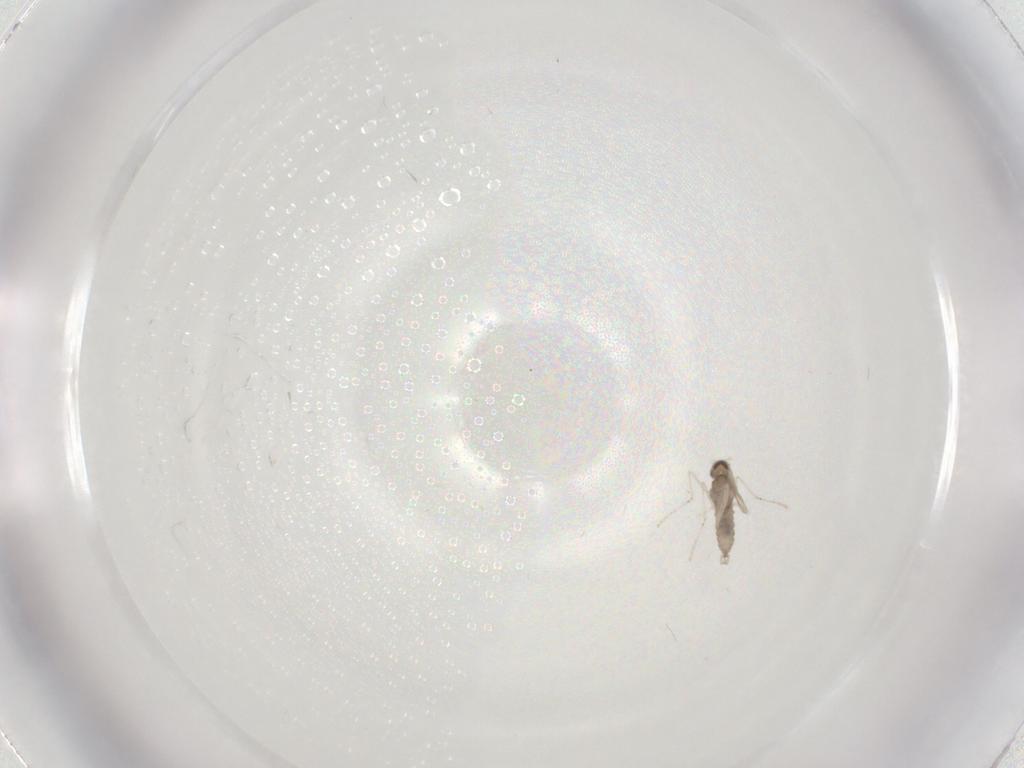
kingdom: Animalia
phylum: Arthropoda
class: Insecta
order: Diptera
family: Cecidomyiidae
